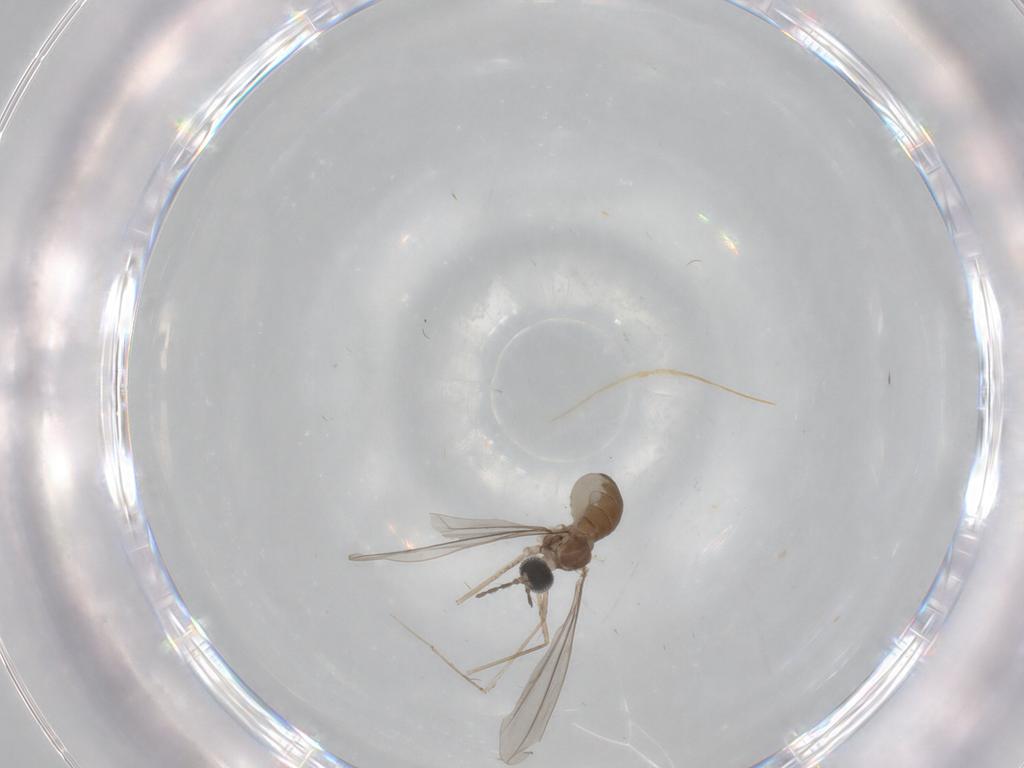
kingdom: Animalia
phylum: Arthropoda
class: Insecta
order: Diptera
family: Cecidomyiidae
